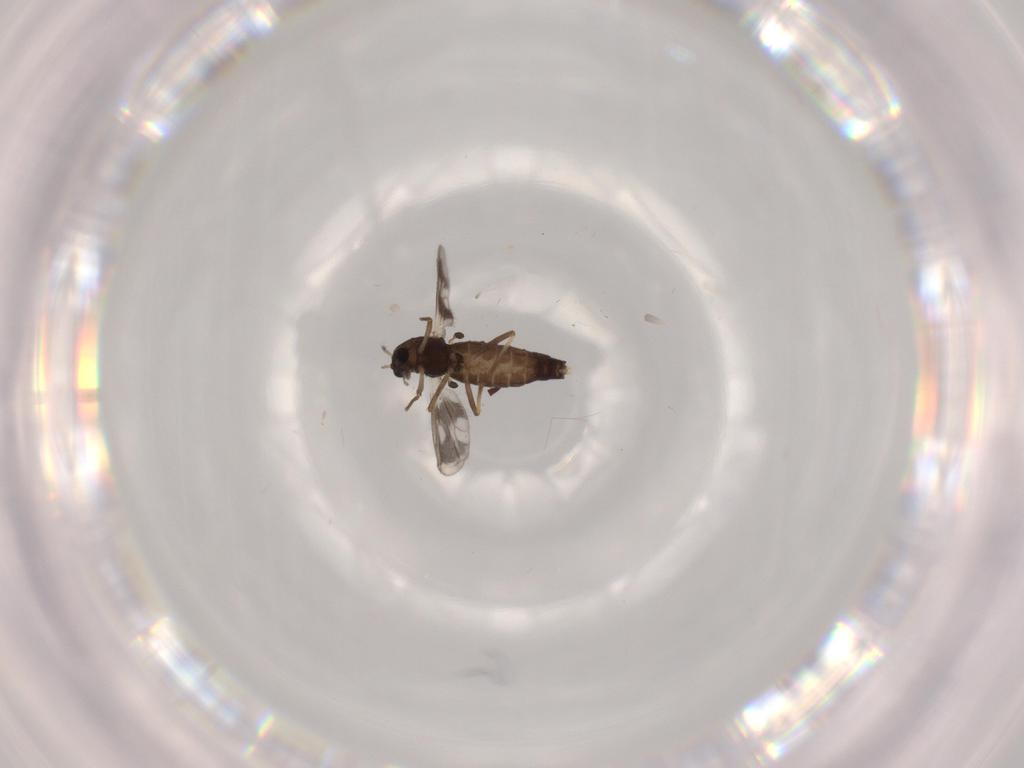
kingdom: Animalia
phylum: Arthropoda
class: Insecta
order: Diptera
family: Chironomidae
